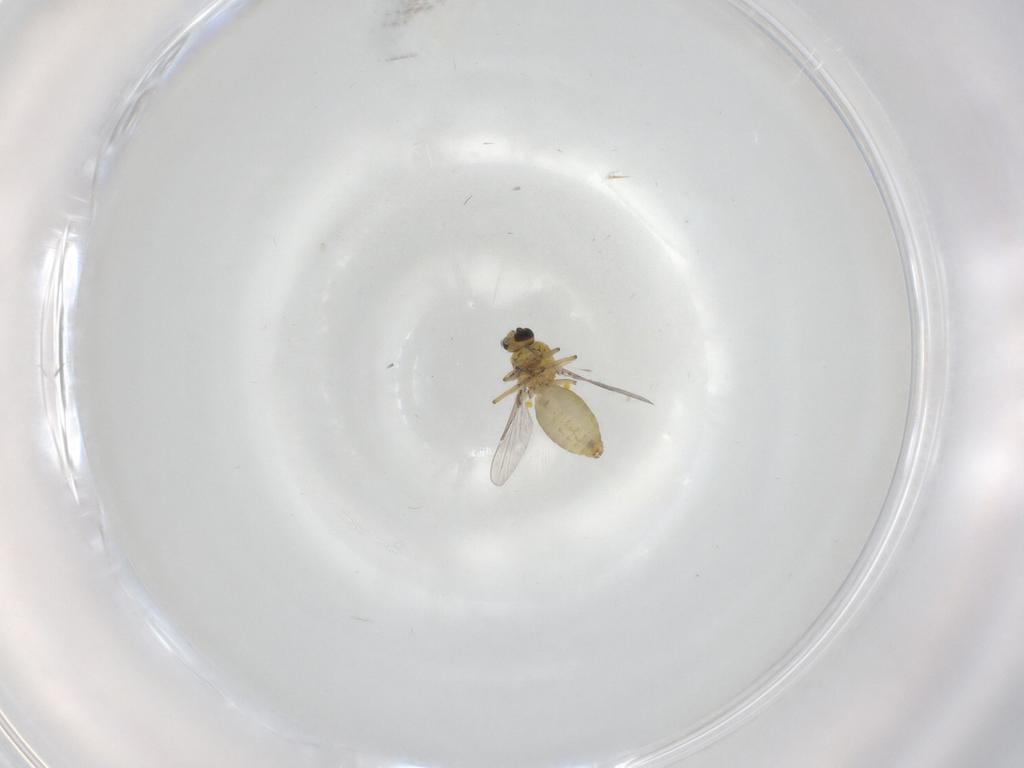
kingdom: Animalia
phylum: Arthropoda
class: Insecta
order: Diptera
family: Ceratopogonidae
